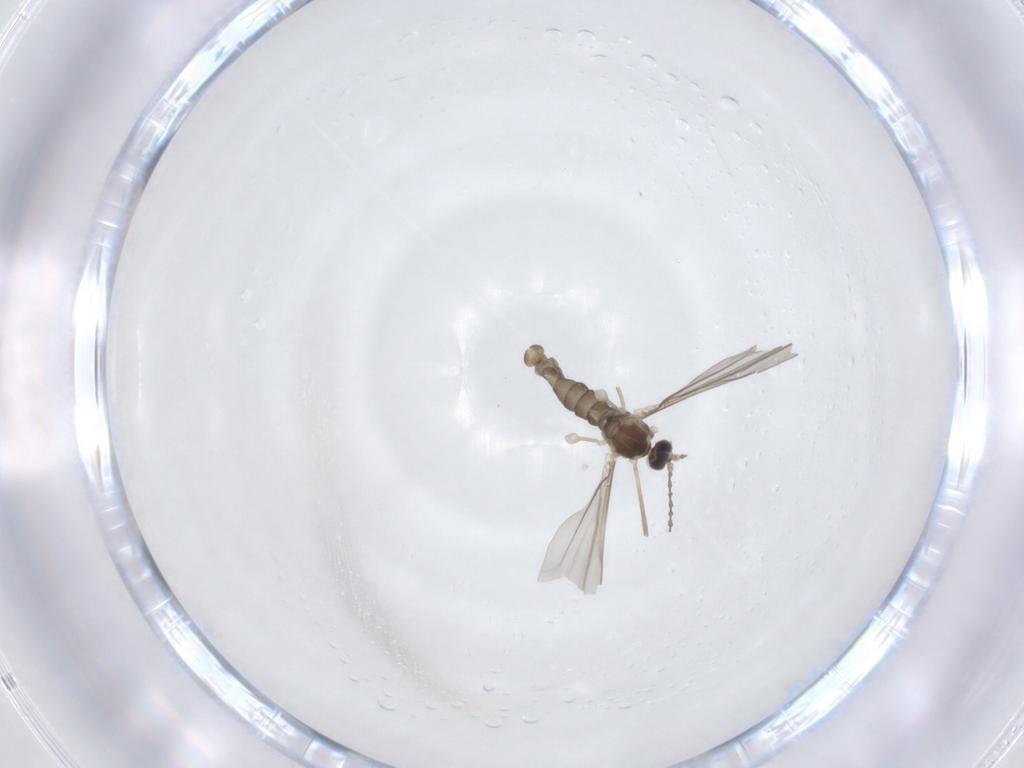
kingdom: Animalia
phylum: Arthropoda
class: Insecta
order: Diptera
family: Cecidomyiidae
